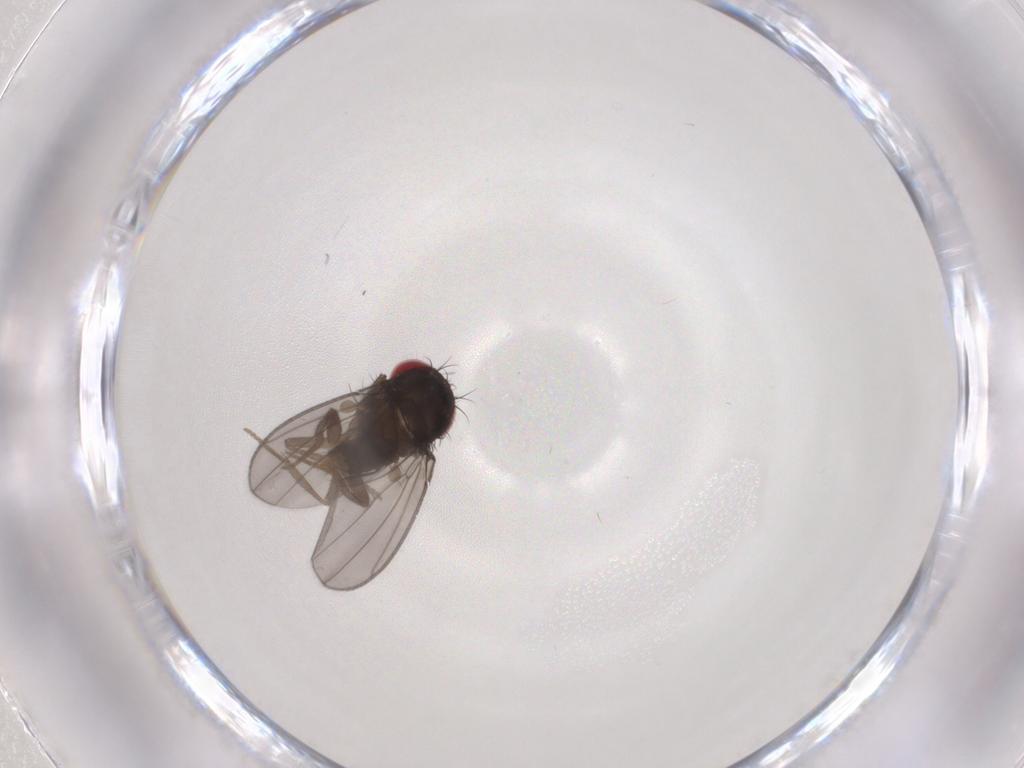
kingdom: Animalia
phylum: Arthropoda
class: Insecta
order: Diptera
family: Drosophilidae
